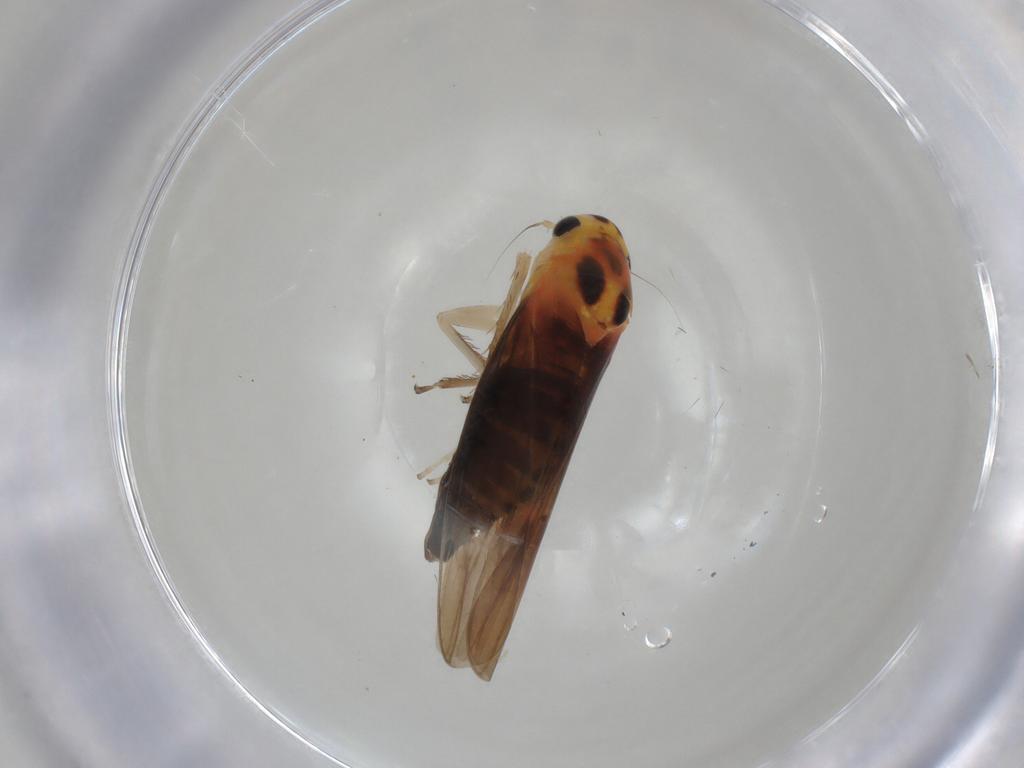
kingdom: Animalia
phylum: Arthropoda
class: Insecta
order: Hemiptera
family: Cicadellidae
